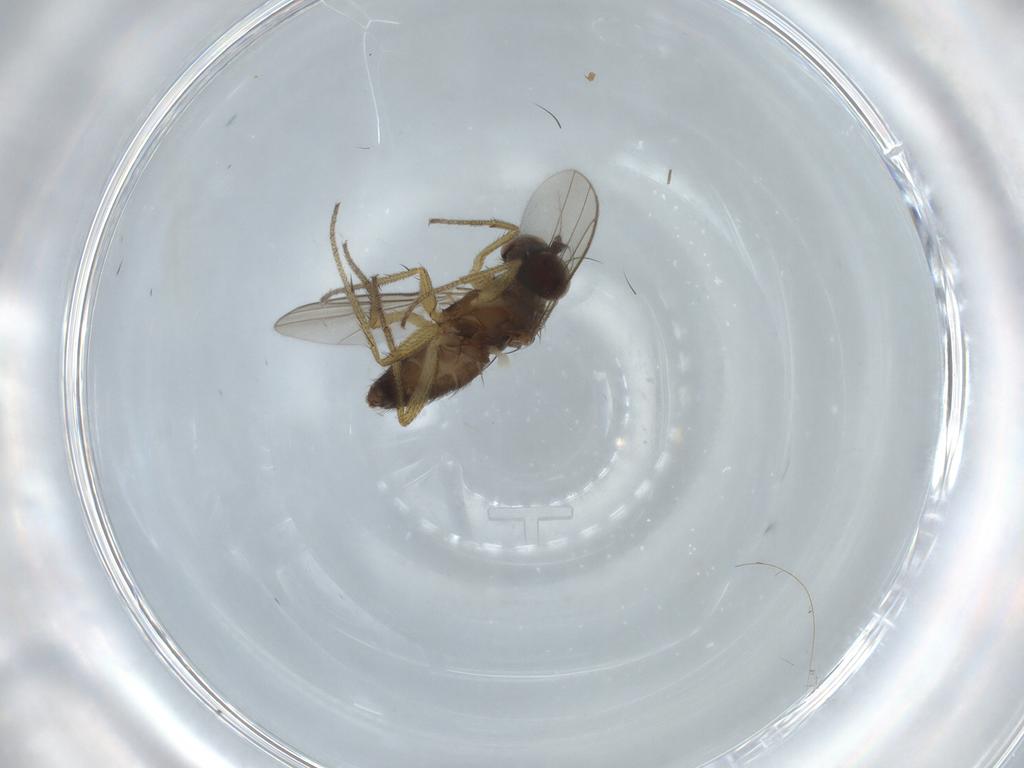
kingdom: Animalia
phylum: Arthropoda
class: Insecta
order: Diptera
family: Dolichopodidae
